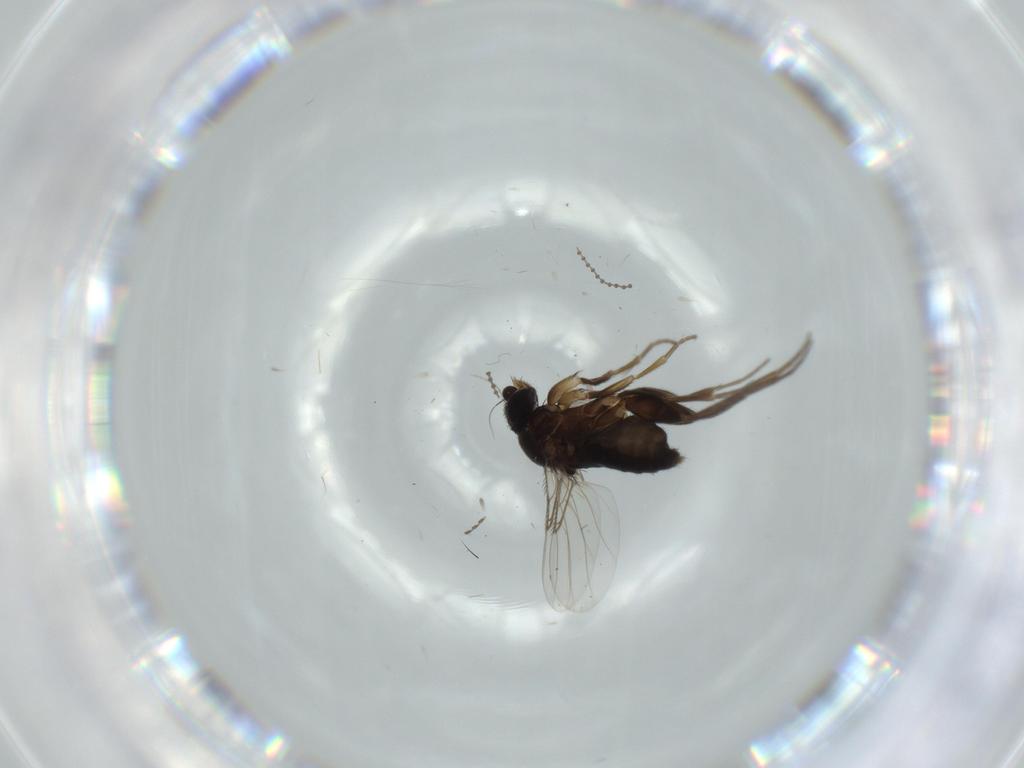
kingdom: Animalia
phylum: Arthropoda
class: Insecta
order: Diptera
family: Phoridae
